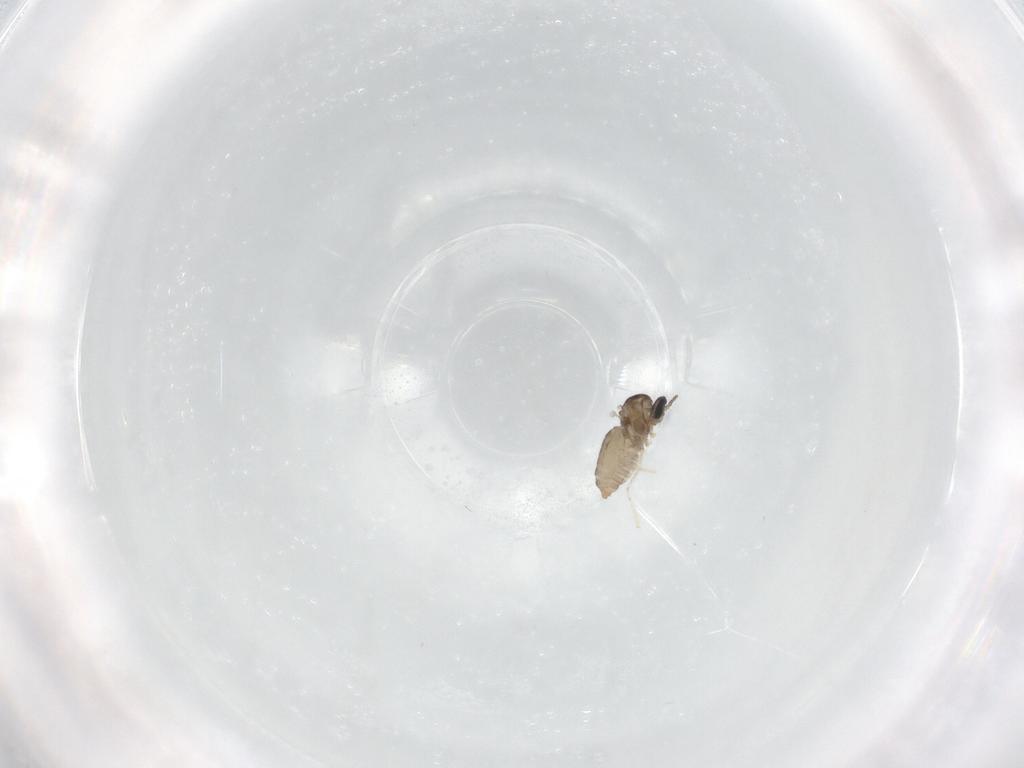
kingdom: Animalia
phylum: Arthropoda
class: Insecta
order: Diptera
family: Cecidomyiidae
